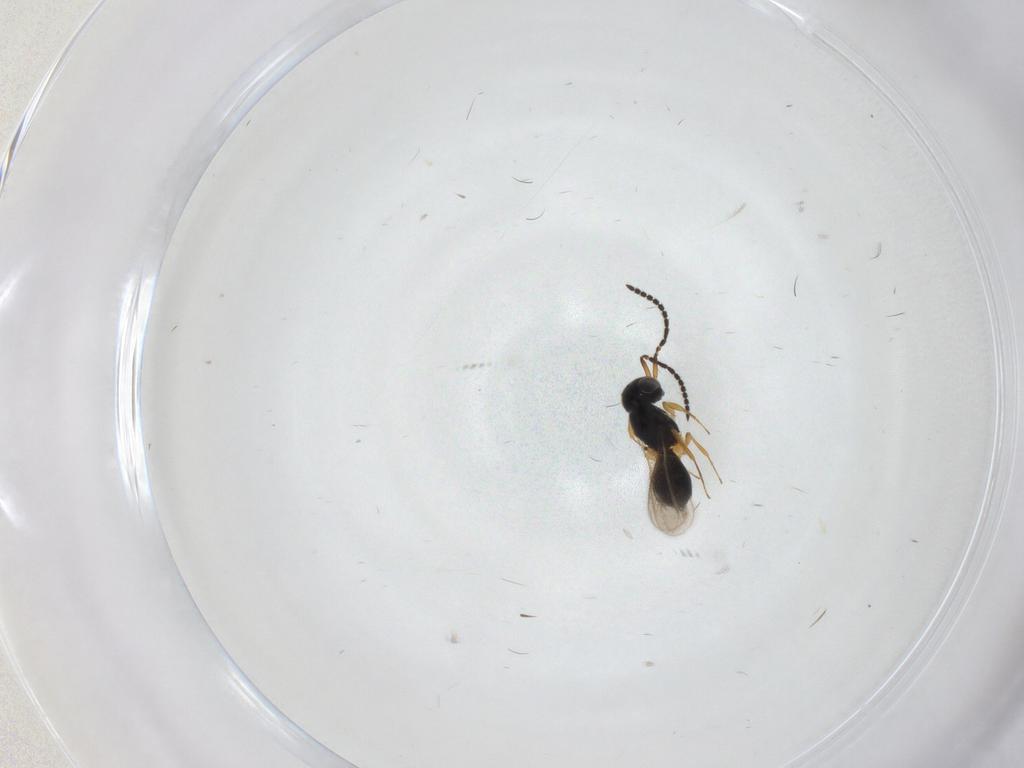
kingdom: Animalia
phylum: Arthropoda
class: Insecta
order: Hymenoptera
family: Scelionidae
